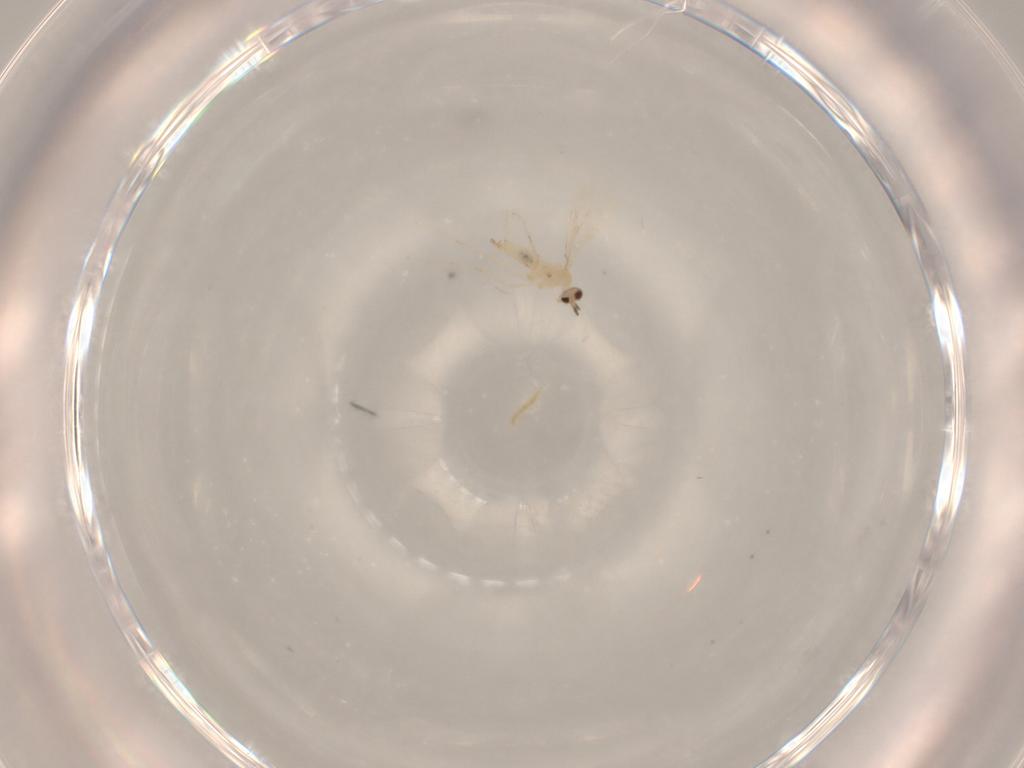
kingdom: Animalia
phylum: Arthropoda
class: Insecta
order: Diptera
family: Cecidomyiidae
